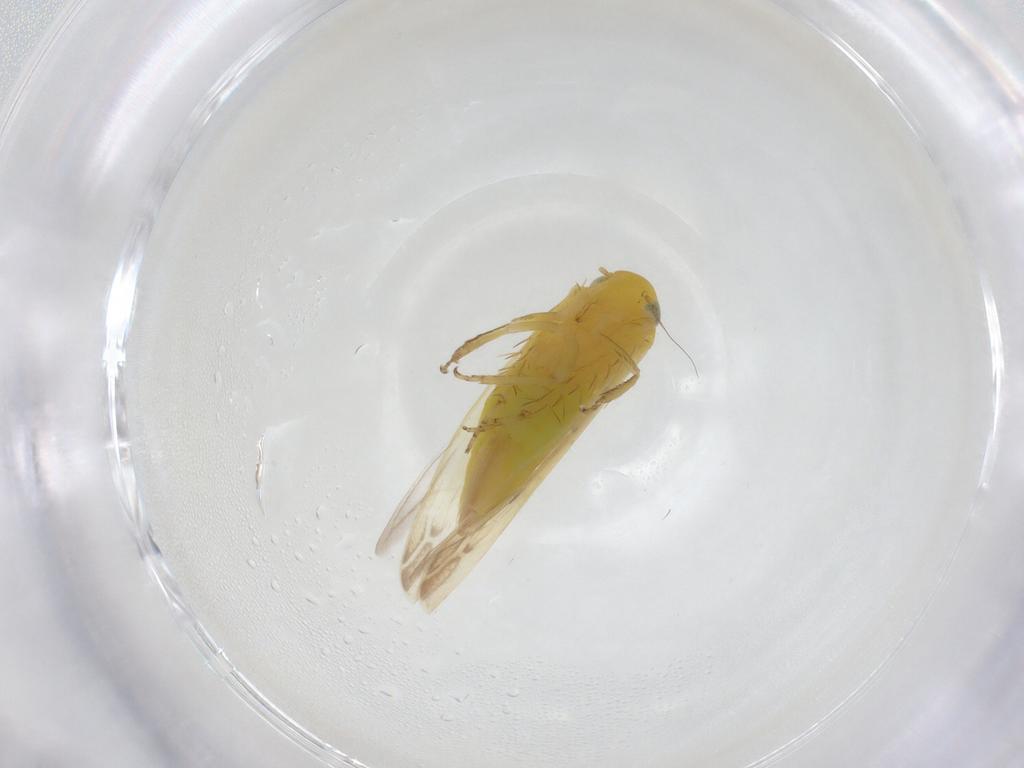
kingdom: Animalia
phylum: Arthropoda
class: Insecta
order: Hemiptera
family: Cicadellidae
